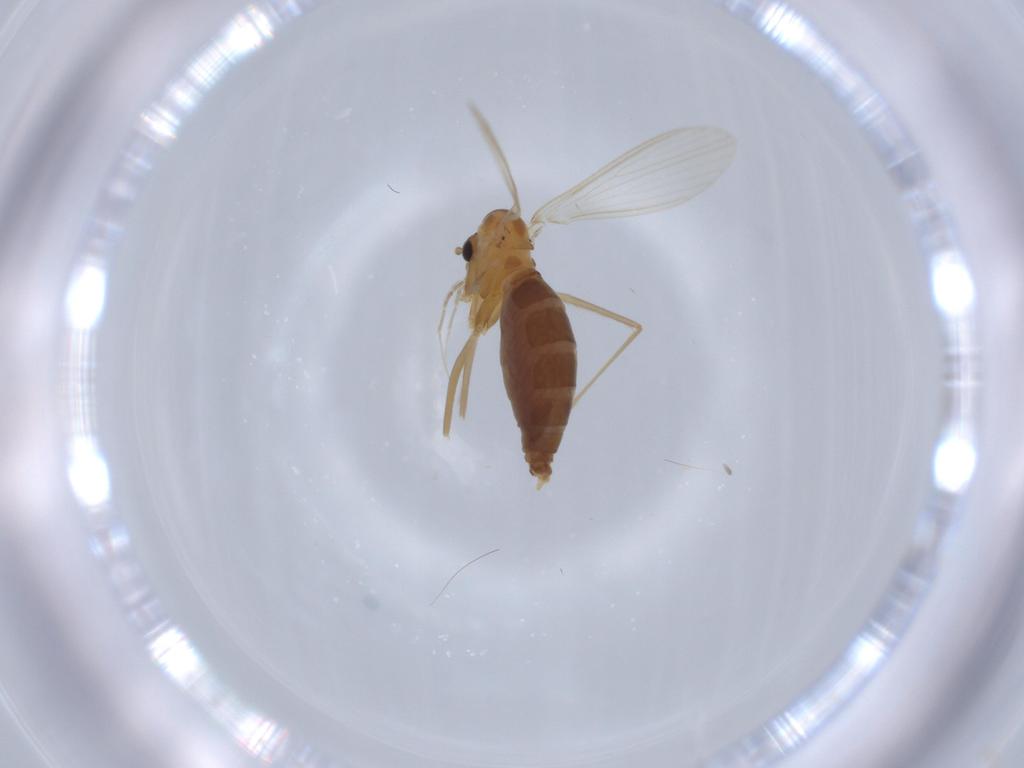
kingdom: Animalia
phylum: Arthropoda
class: Insecta
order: Diptera
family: Psychodidae
